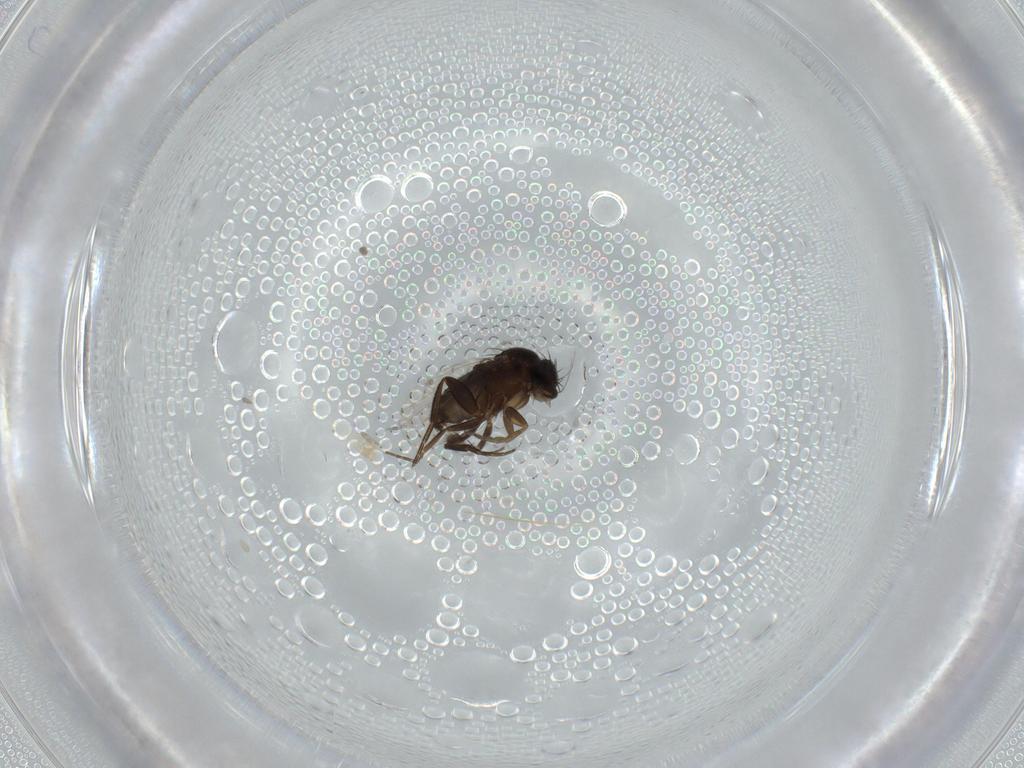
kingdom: Animalia
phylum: Arthropoda
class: Insecta
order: Diptera
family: Phoridae
